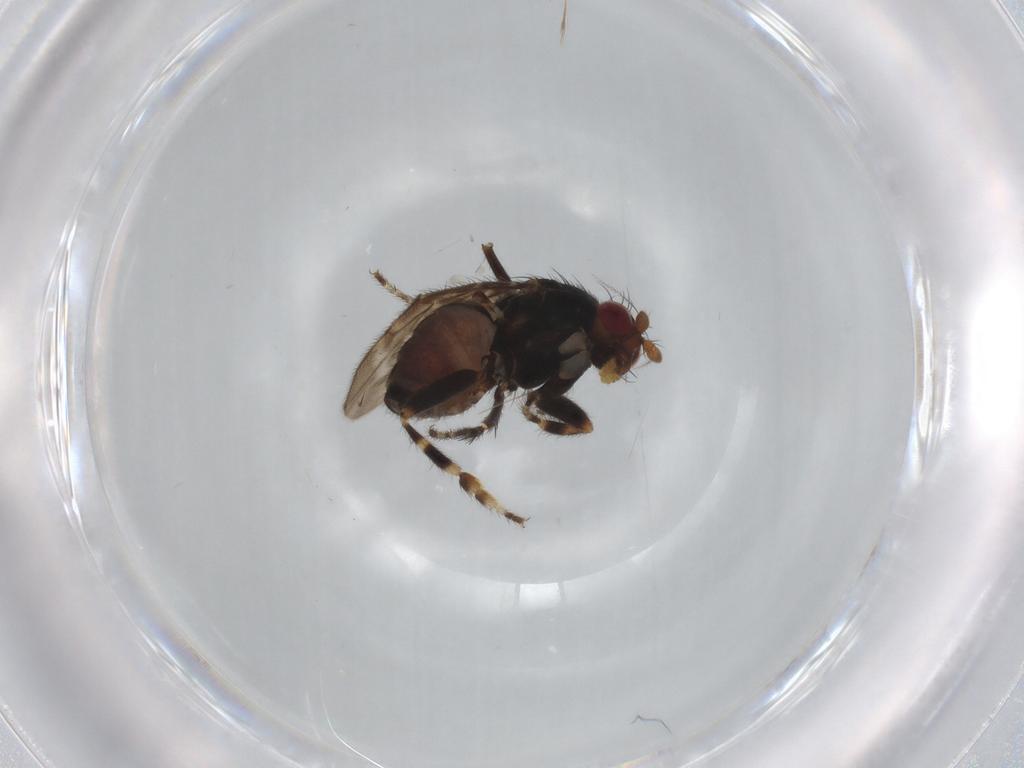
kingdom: Animalia
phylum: Arthropoda
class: Insecta
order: Diptera
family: Sphaeroceridae
